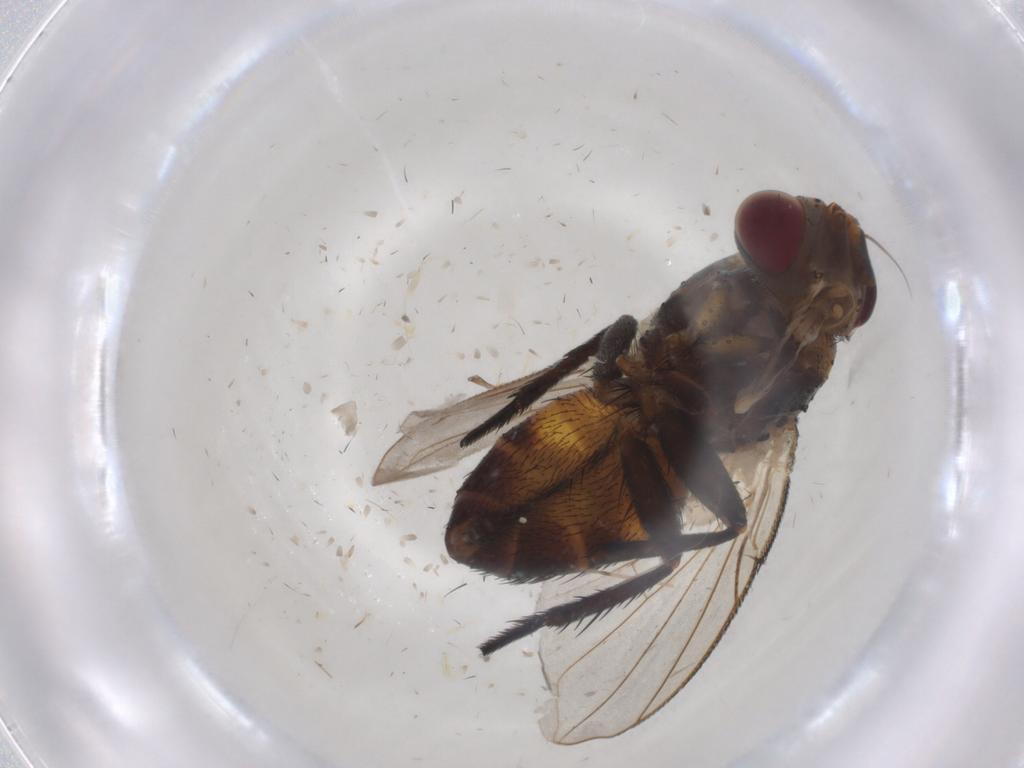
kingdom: Animalia
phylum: Arthropoda
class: Insecta
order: Diptera
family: Tachinidae
